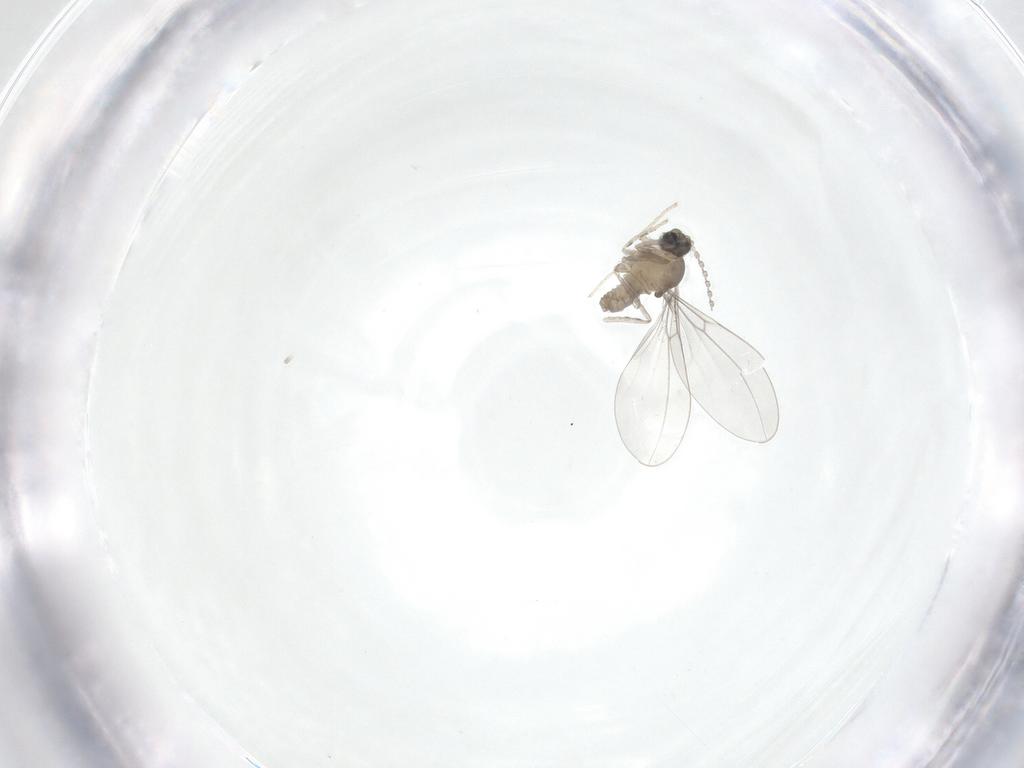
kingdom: Animalia
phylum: Arthropoda
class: Insecta
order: Diptera
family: Cecidomyiidae
